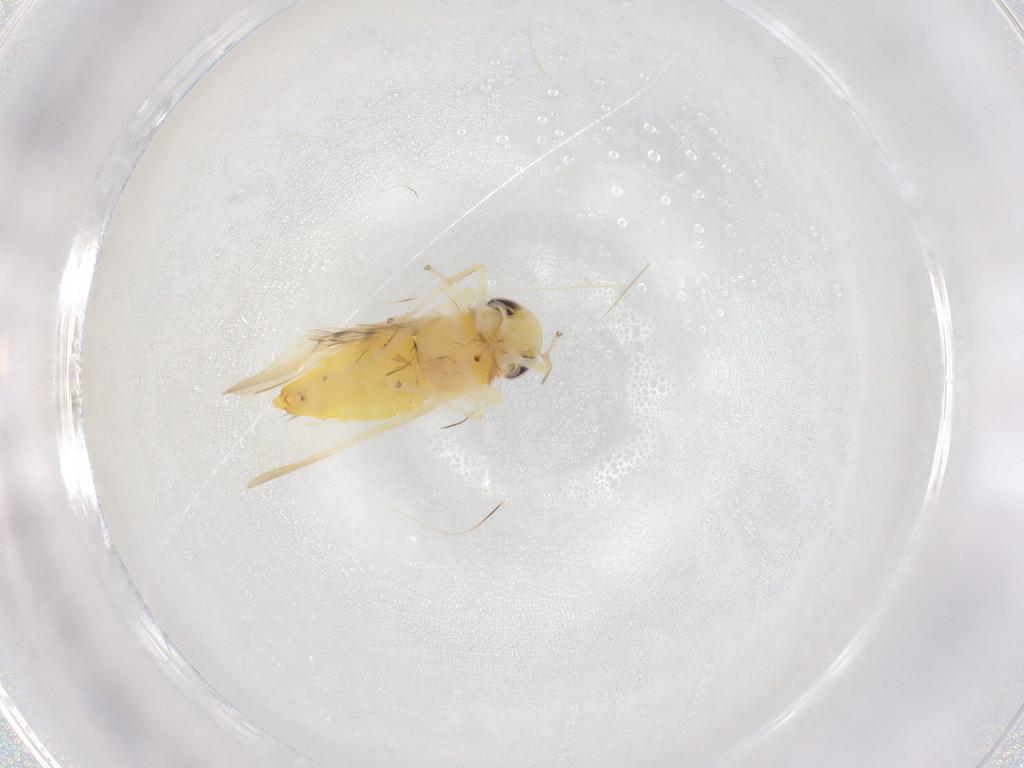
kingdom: Animalia
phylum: Arthropoda
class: Insecta
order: Hemiptera
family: Cicadellidae
